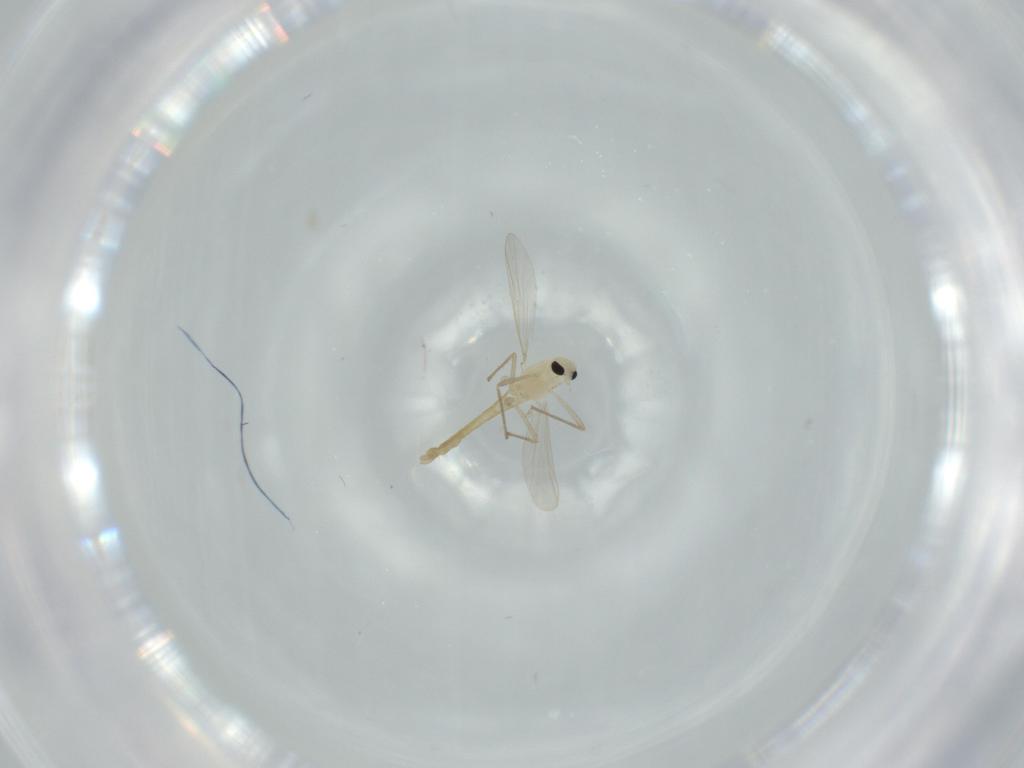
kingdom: Animalia
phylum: Arthropoda
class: Insecta
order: Diptera
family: Chironomidae
